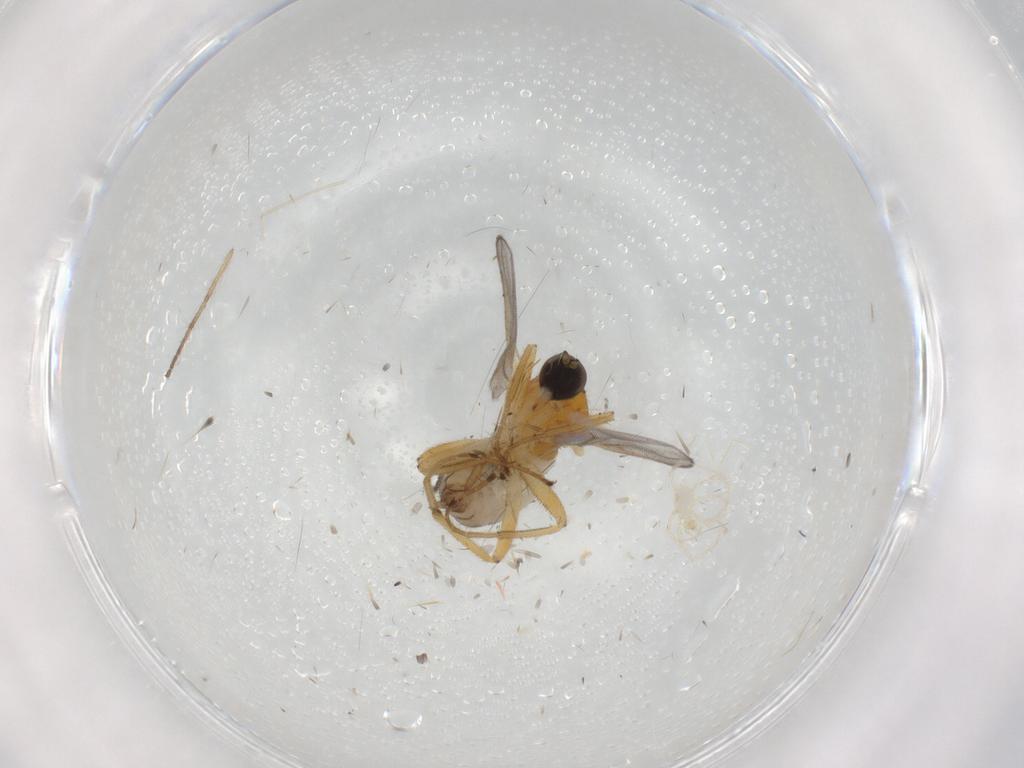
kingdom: Animalia
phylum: Arthropoda
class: Insecta
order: Diptera
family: Hybotidae
